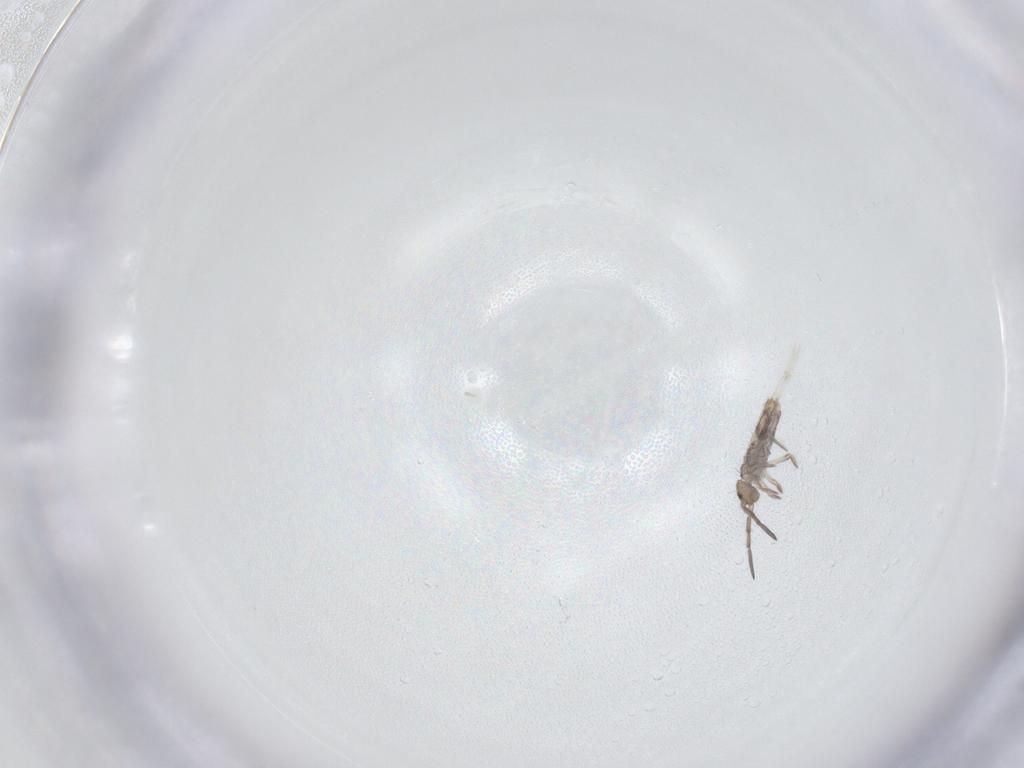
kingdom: Animalia
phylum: Arthropoda
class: Collembola
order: Entomobryomorpha
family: Entomobryidae
